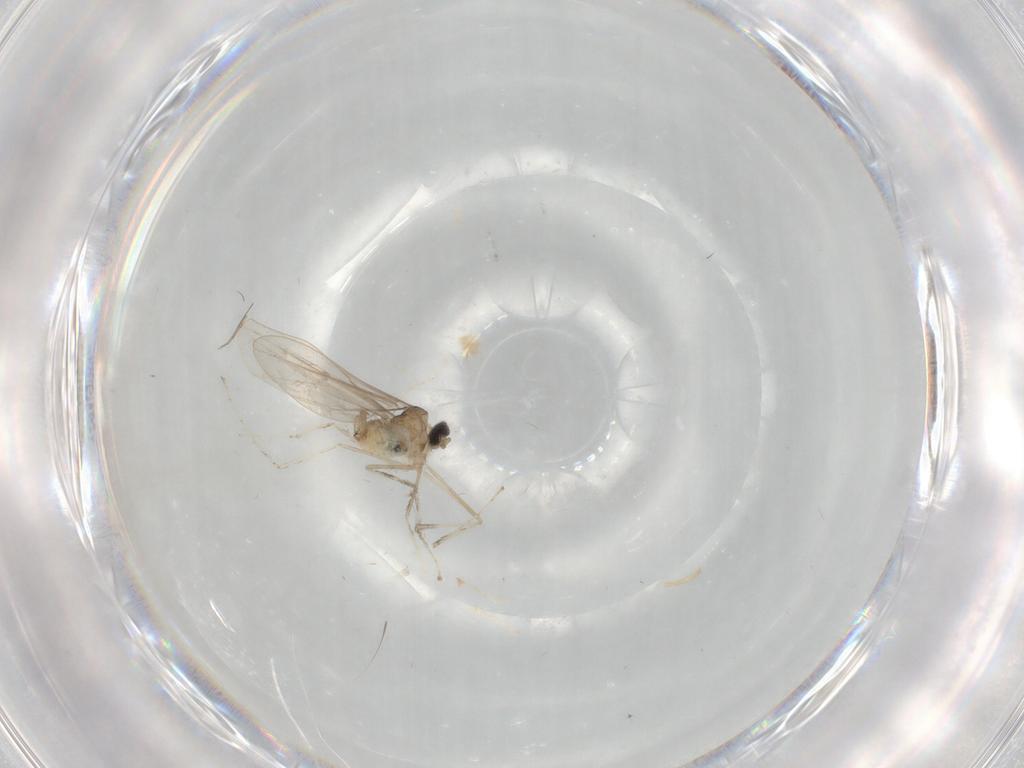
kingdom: Animalia
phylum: Arthropoda
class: Insecta
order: Diptera
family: Cecidomyiidae
